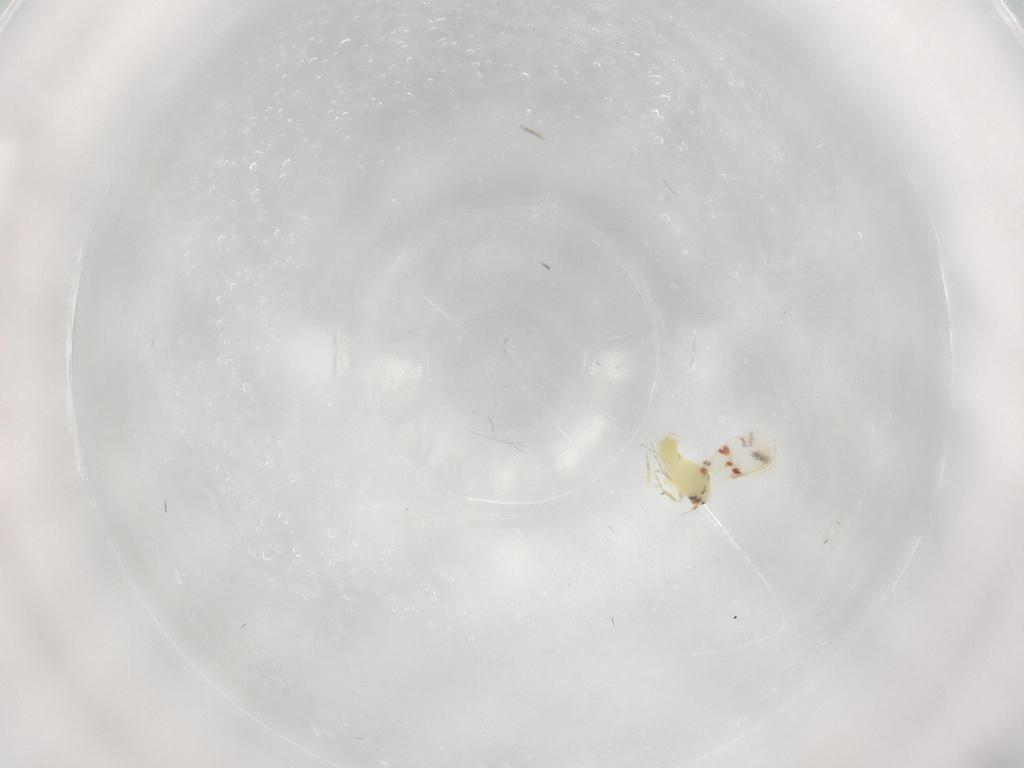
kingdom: Animalia
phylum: Arthropoda
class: Insecta
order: Hemiptera
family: Aleyrodidae
